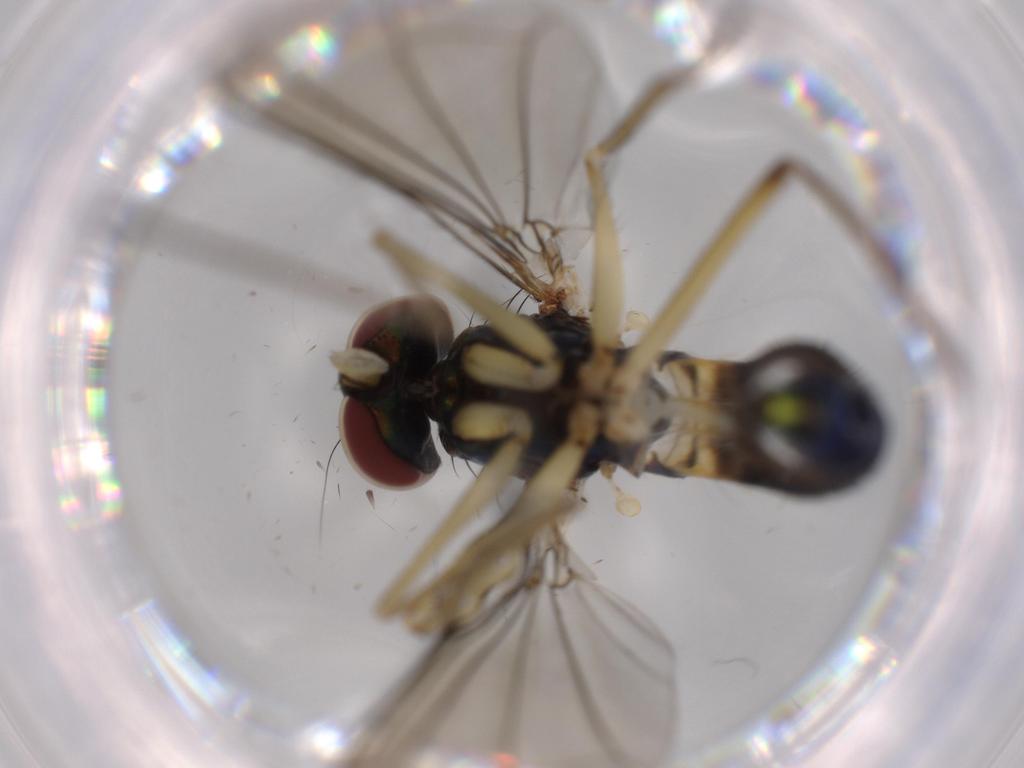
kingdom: Animalia
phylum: Arthropoda
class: Insecta
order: Diptera
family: Dolichopodidae
